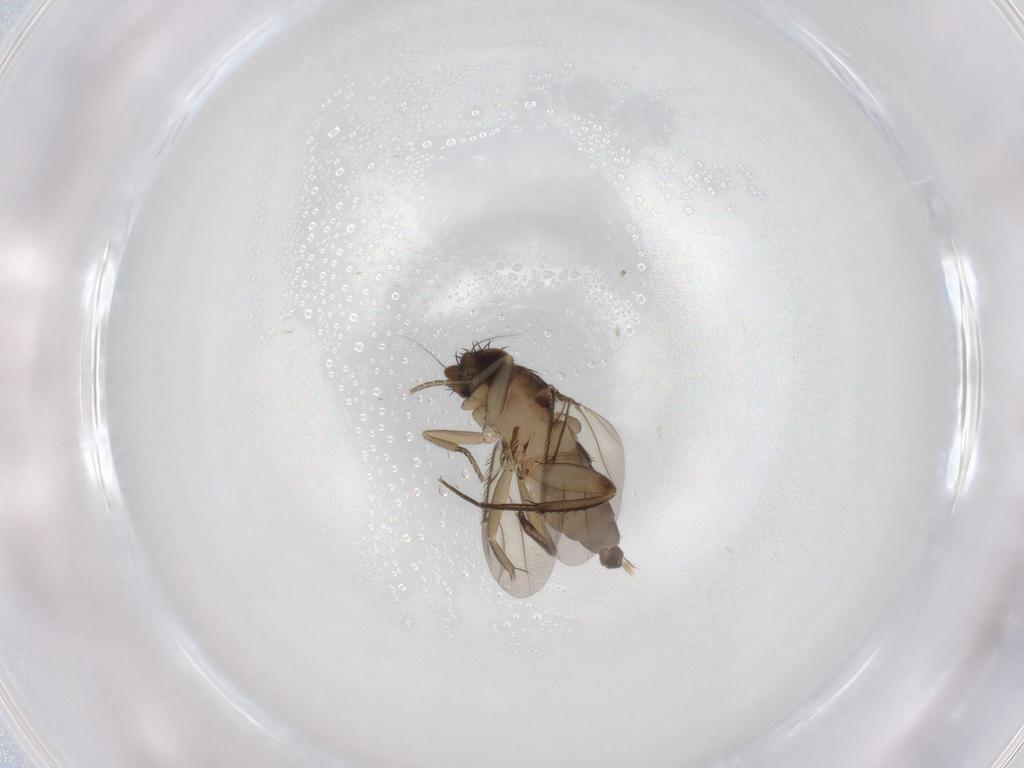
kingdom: Animalia
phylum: Arthropoda
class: Insecta
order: Diptera
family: Phoridae
